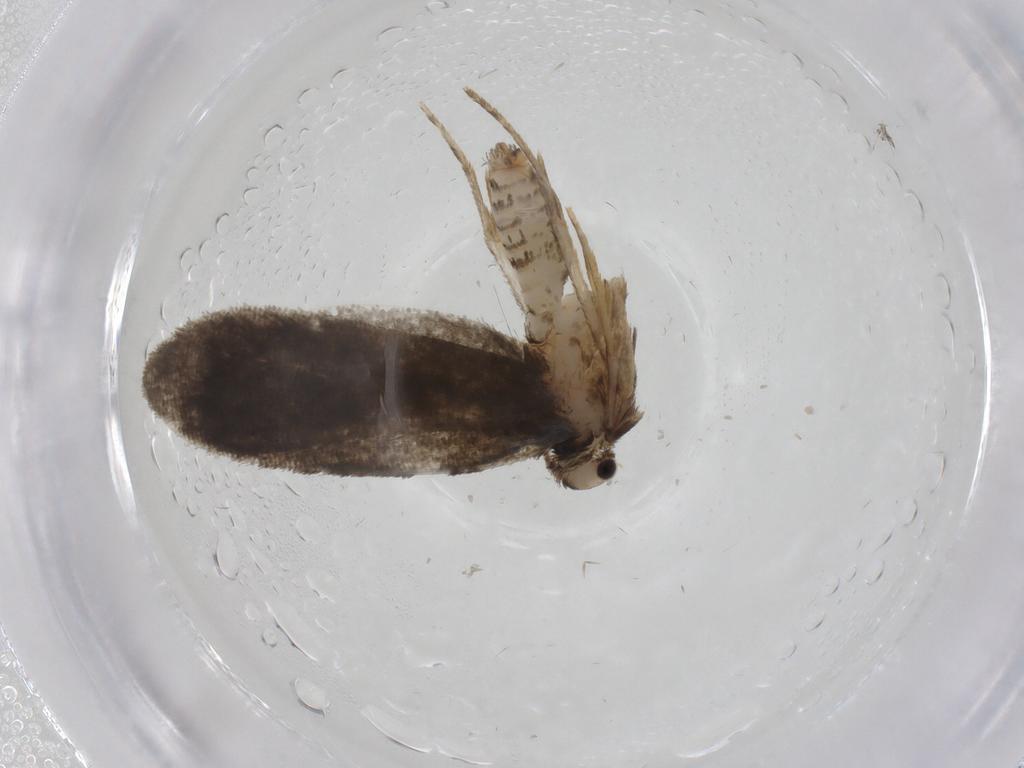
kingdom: Animalia
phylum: Arthropoda
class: Insecta
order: Lepidoptera
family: Psychidae
